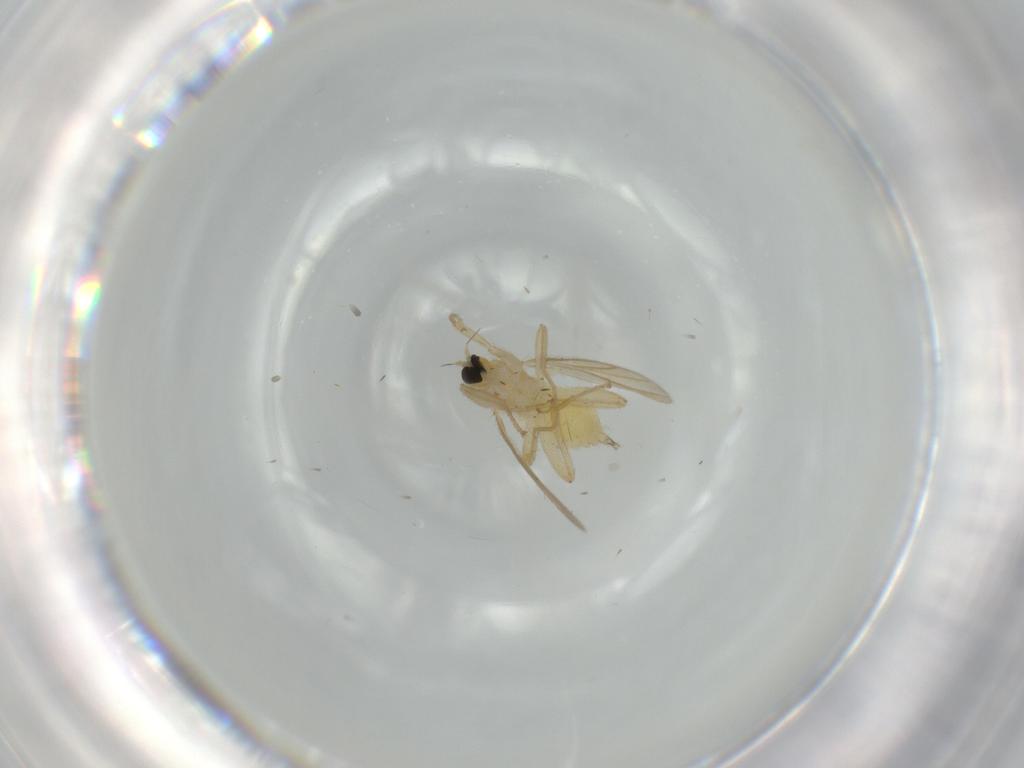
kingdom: Animalia
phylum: Arthropoda
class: Insecta
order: Diptera
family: Hybotidae
